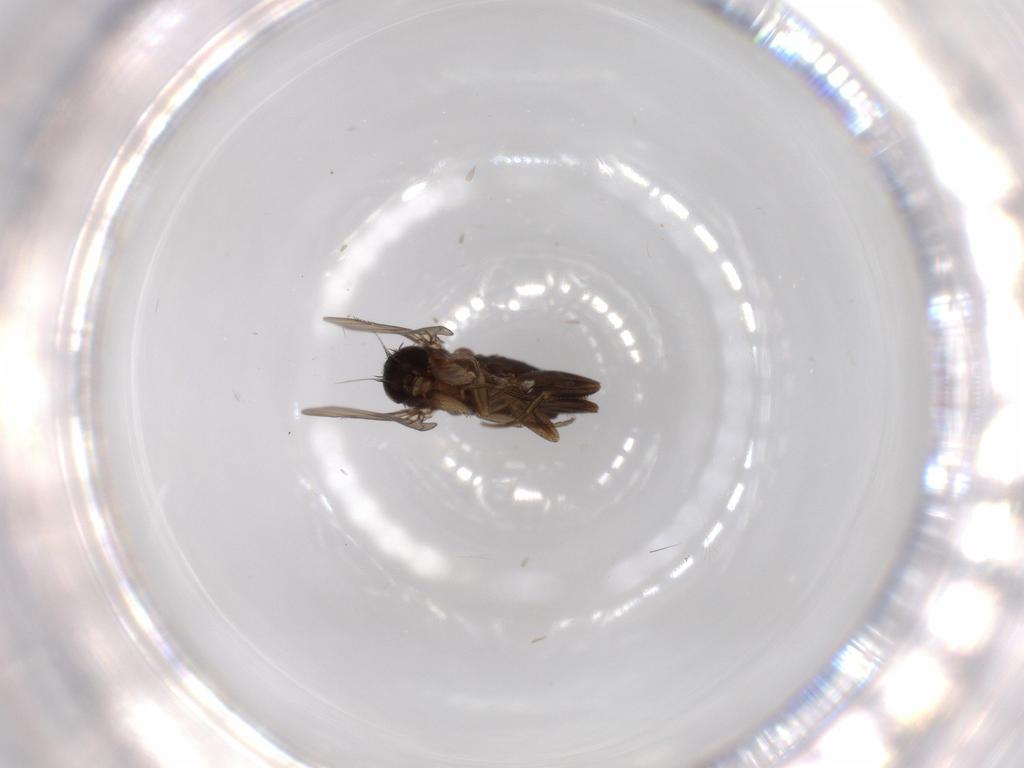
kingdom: Animalia
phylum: Arthropoda
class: Insecta
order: Diptera
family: Phoridae
